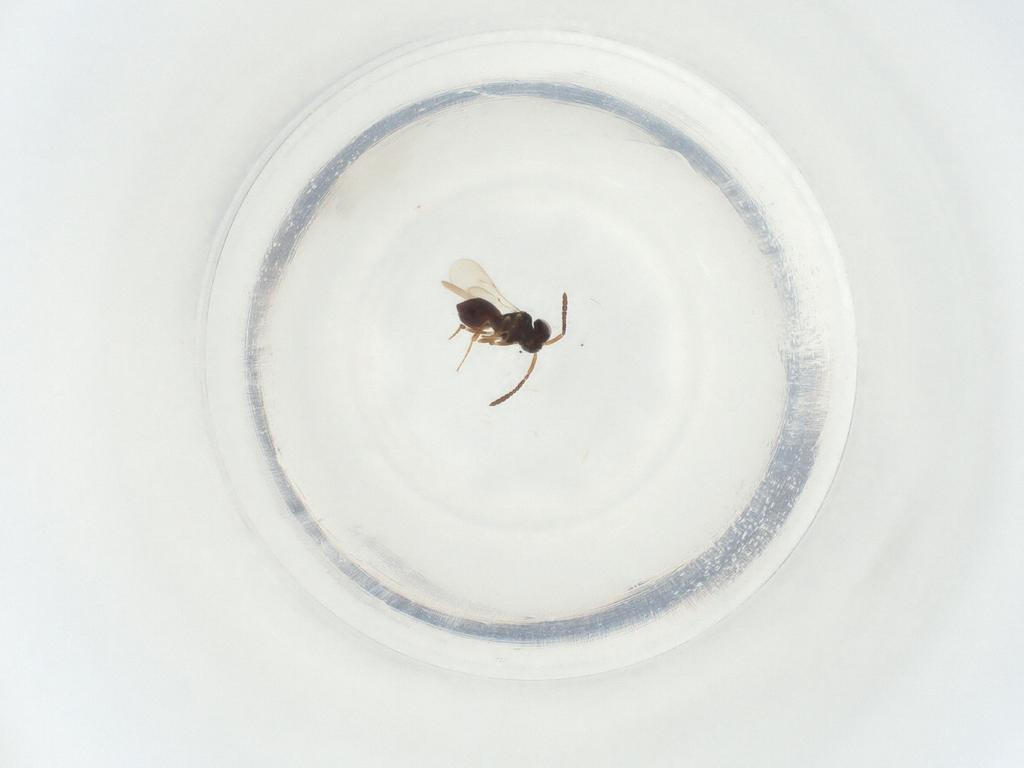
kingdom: Animalia
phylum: Arthropoda
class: Insecta
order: Hymenoptera
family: Scelionidae
